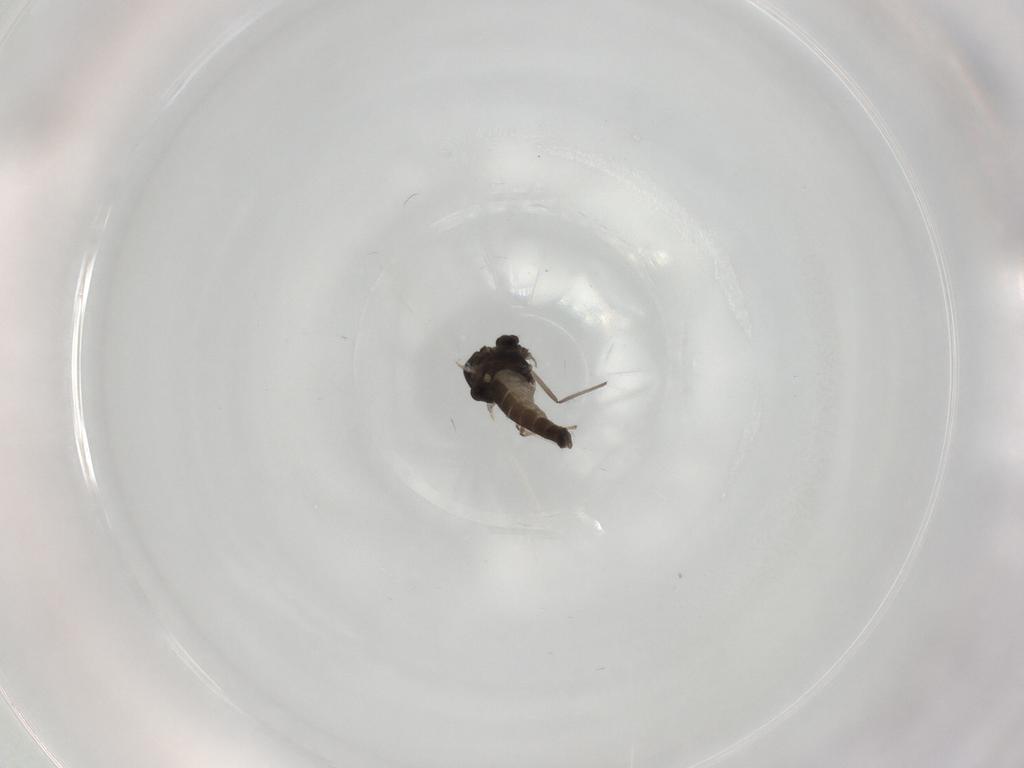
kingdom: Animalia
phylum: Arthropoda
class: Insecta
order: Diptera
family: Chironomidae
